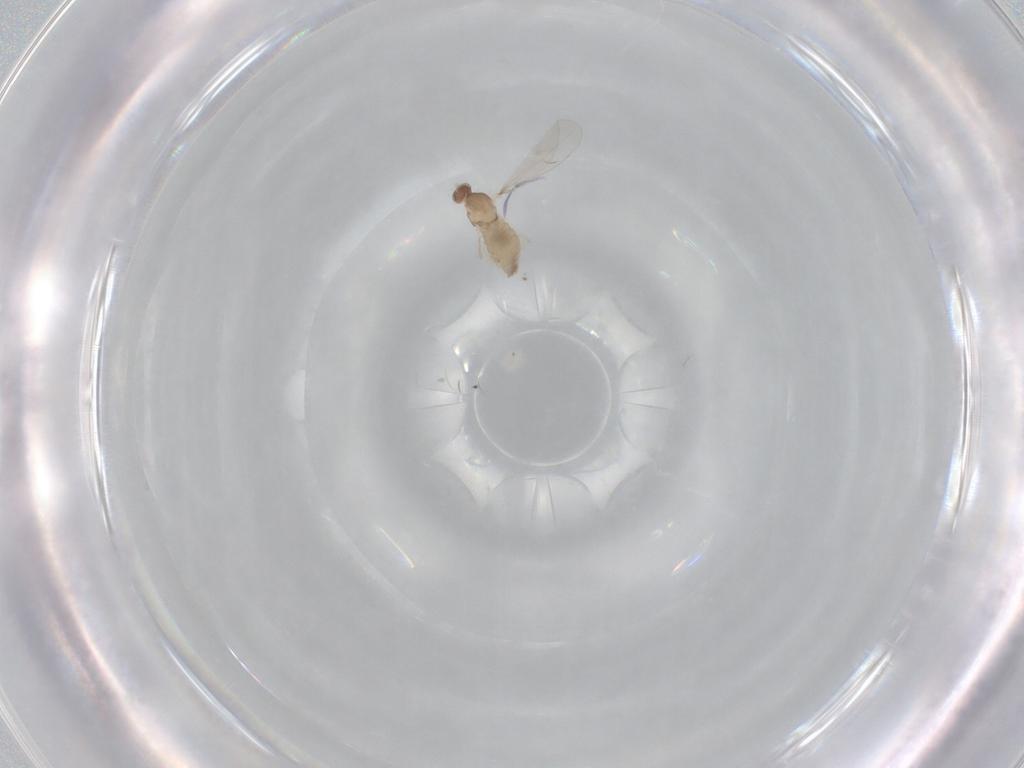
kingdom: Animalia
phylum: Arthropoda
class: Insecta
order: Diptera
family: Cecidomyiidae
